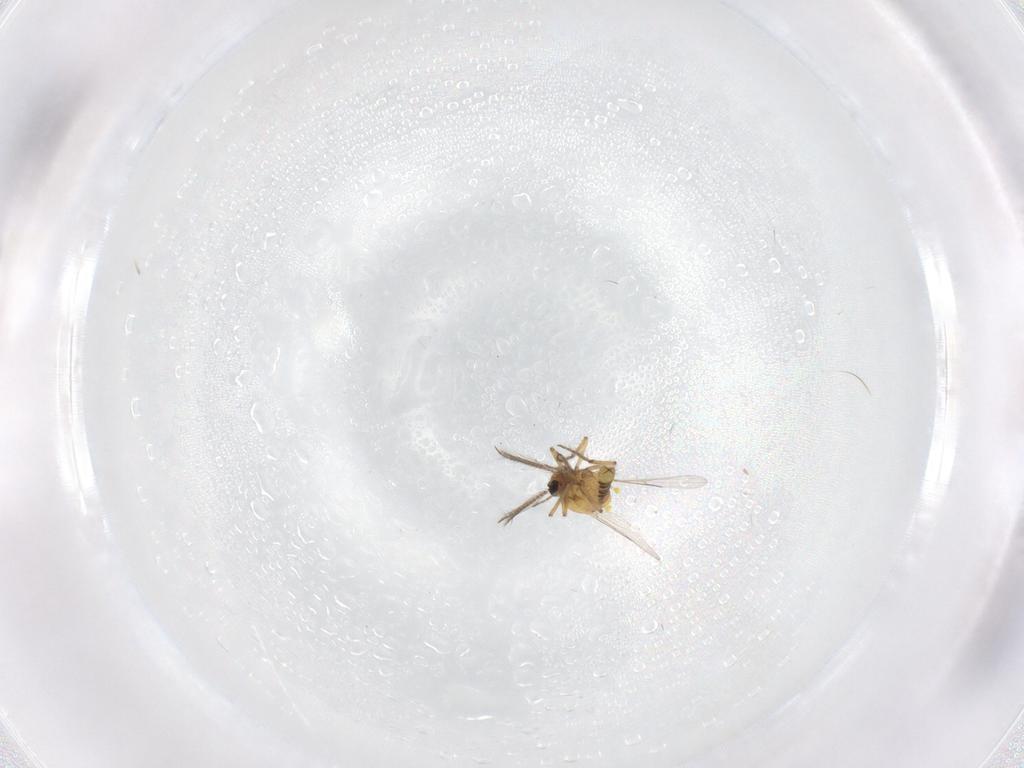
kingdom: Animalia
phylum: Arthropoda
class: Insecta
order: Diptera
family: Ceratopogonidae
